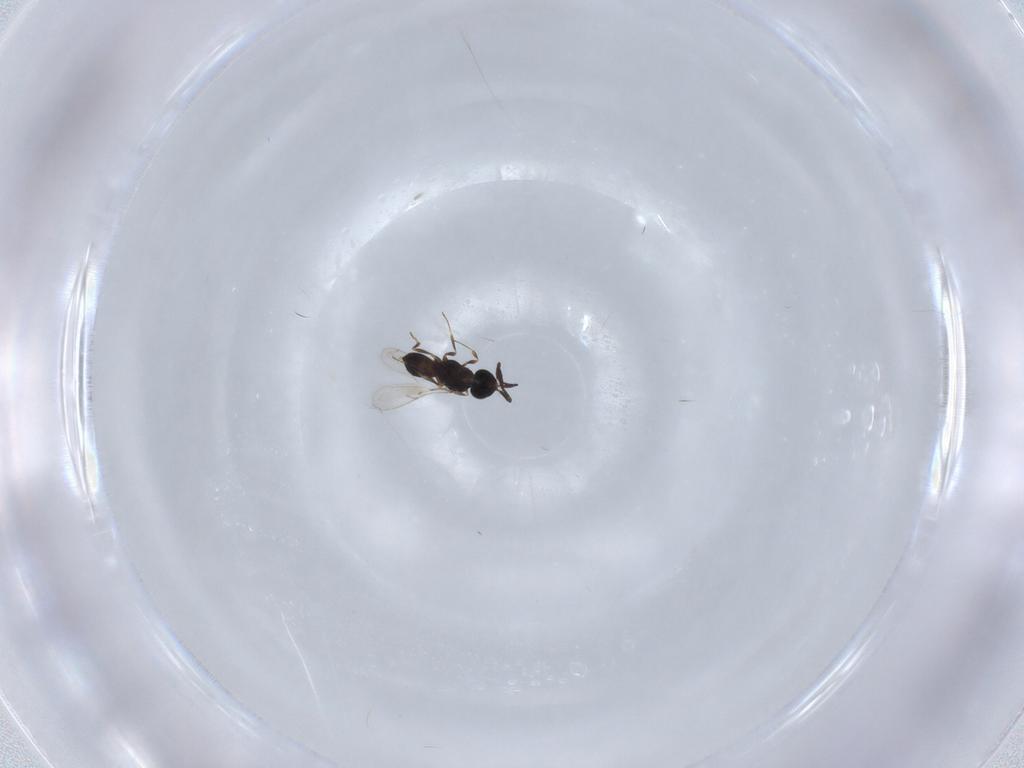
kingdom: Animalia
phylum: Arthropoda
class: Insecta
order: Hymenoptera
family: Scelionidae
